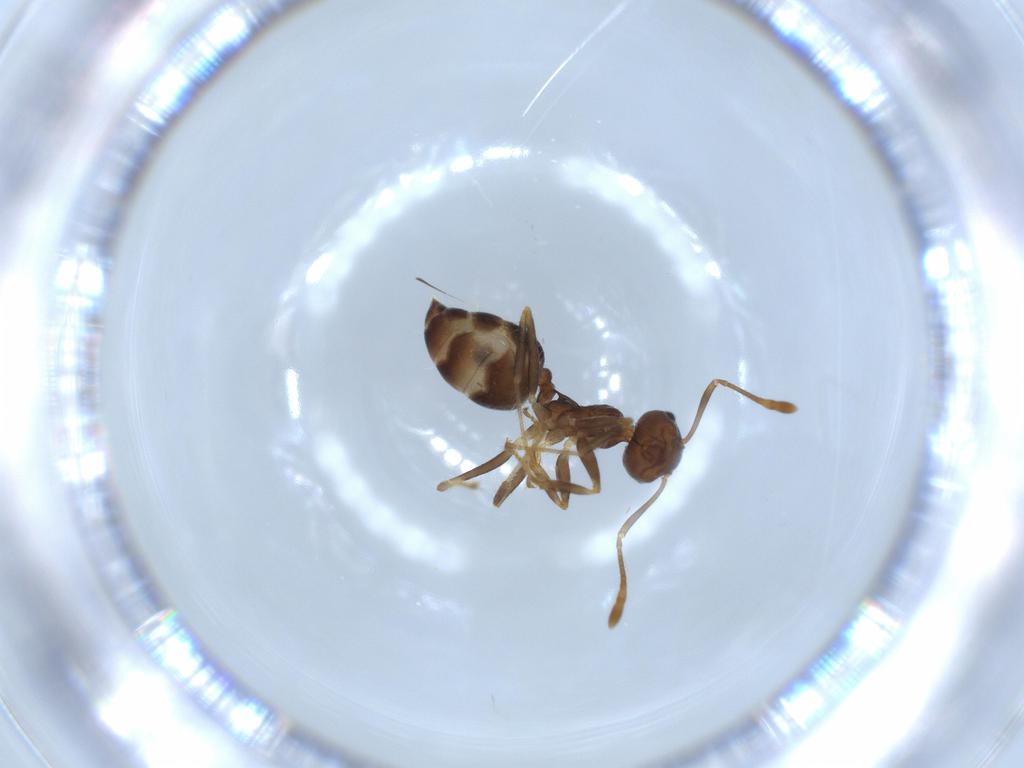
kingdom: Animalia
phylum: Arthropoda
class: Insecta
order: Hymenoptera
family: Formicidae
